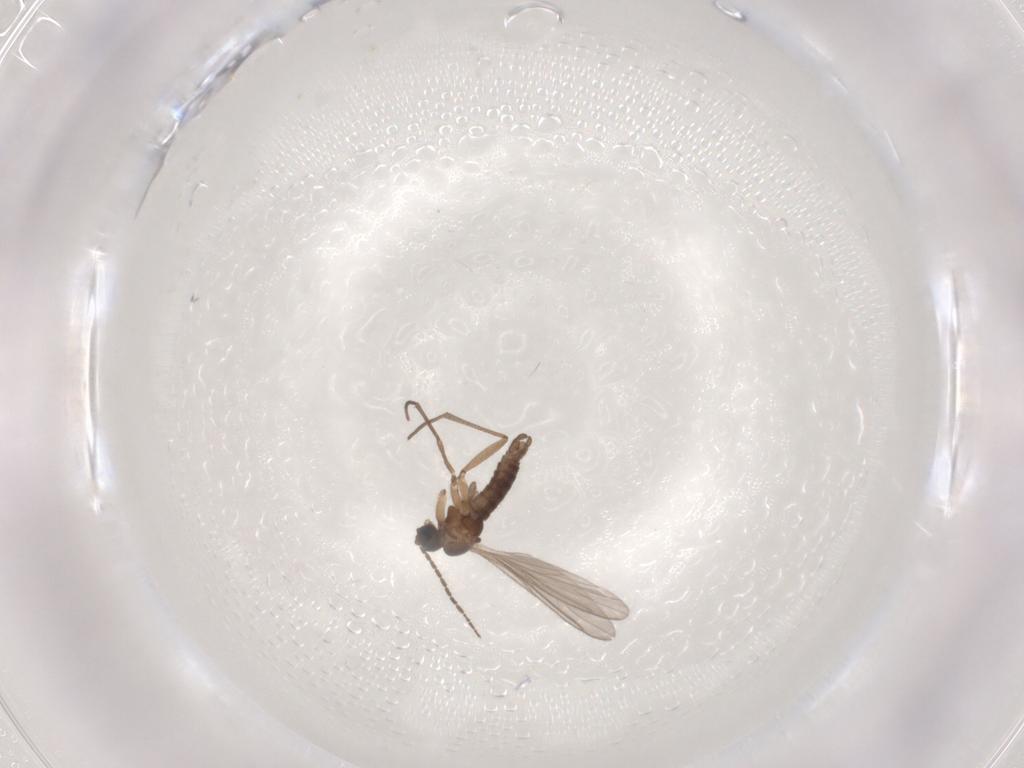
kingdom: Animalia
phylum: Arthropoda
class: Insecta
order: Diptera
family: Sciaridae
